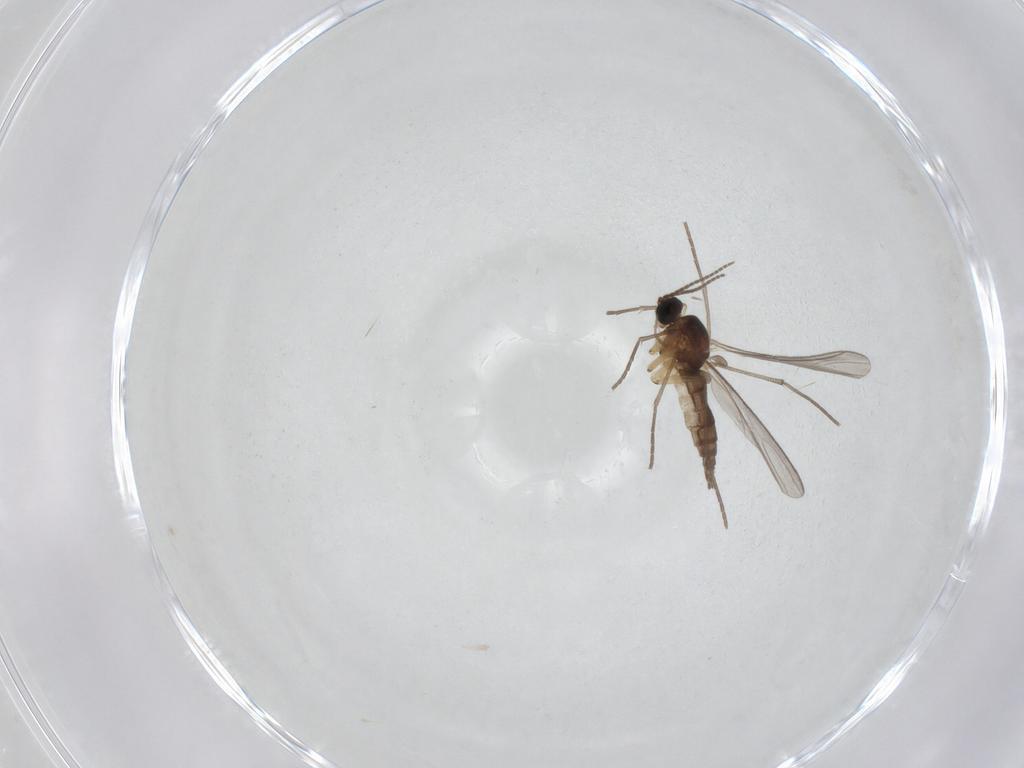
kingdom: Animalia
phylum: Arthropoda
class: Insecta
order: Diptera
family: Sciaridae
